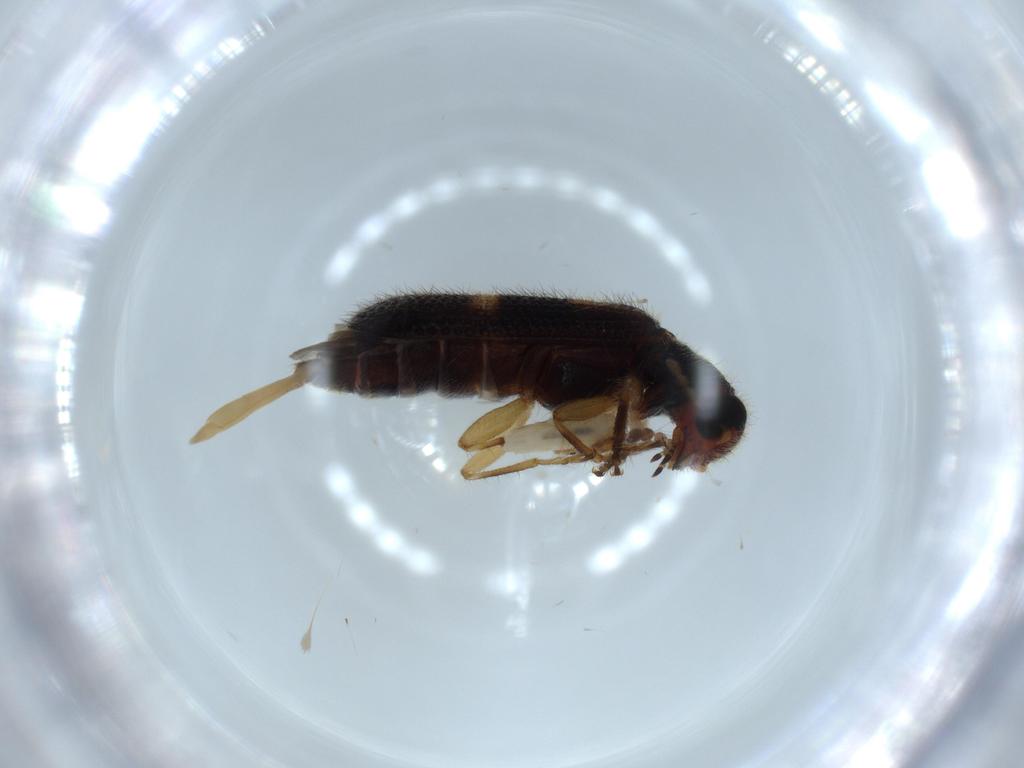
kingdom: Animalia
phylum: Arthropoda
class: Insecta
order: Coleoptera
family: Cleridae
